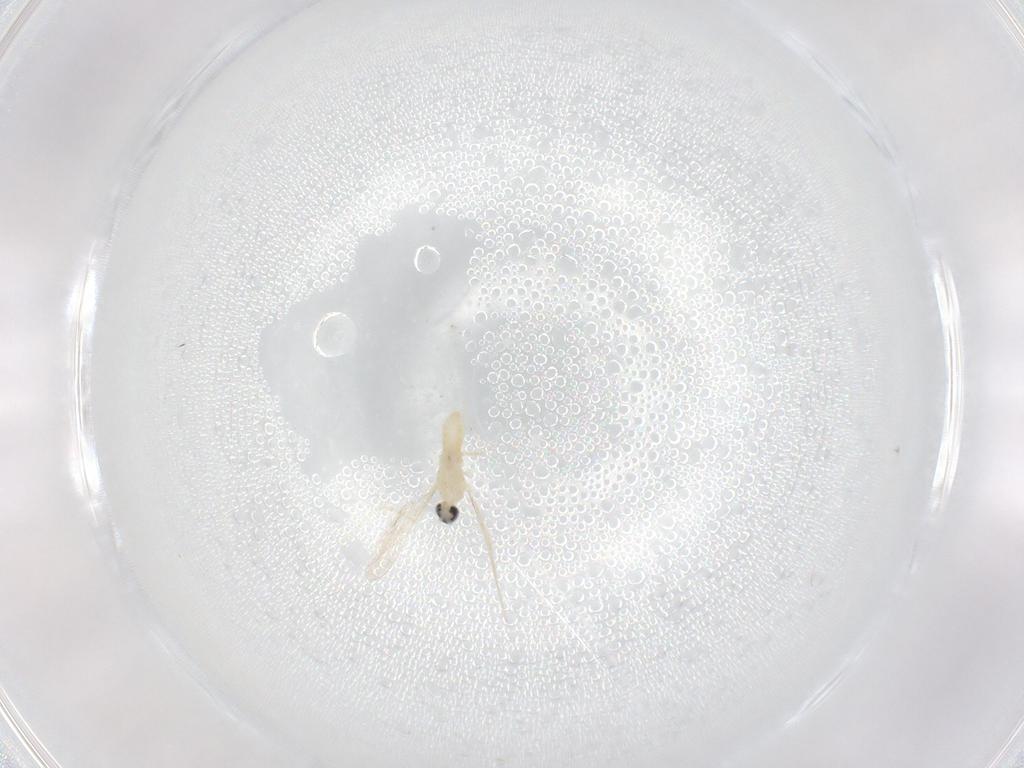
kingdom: Animalia
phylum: Arthropoda
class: Insecta
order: Diptera
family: Cecidomyiidae
